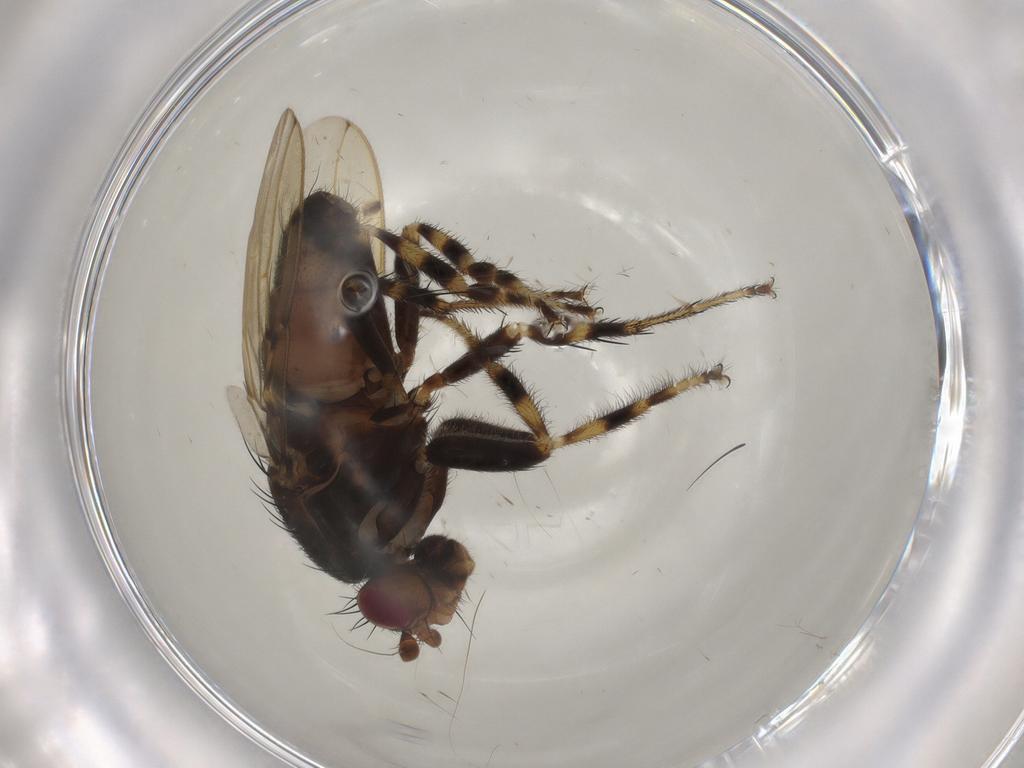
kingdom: Animalia
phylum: Arthropoda
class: Insecta
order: Diptera
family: Sphaeroceridae
